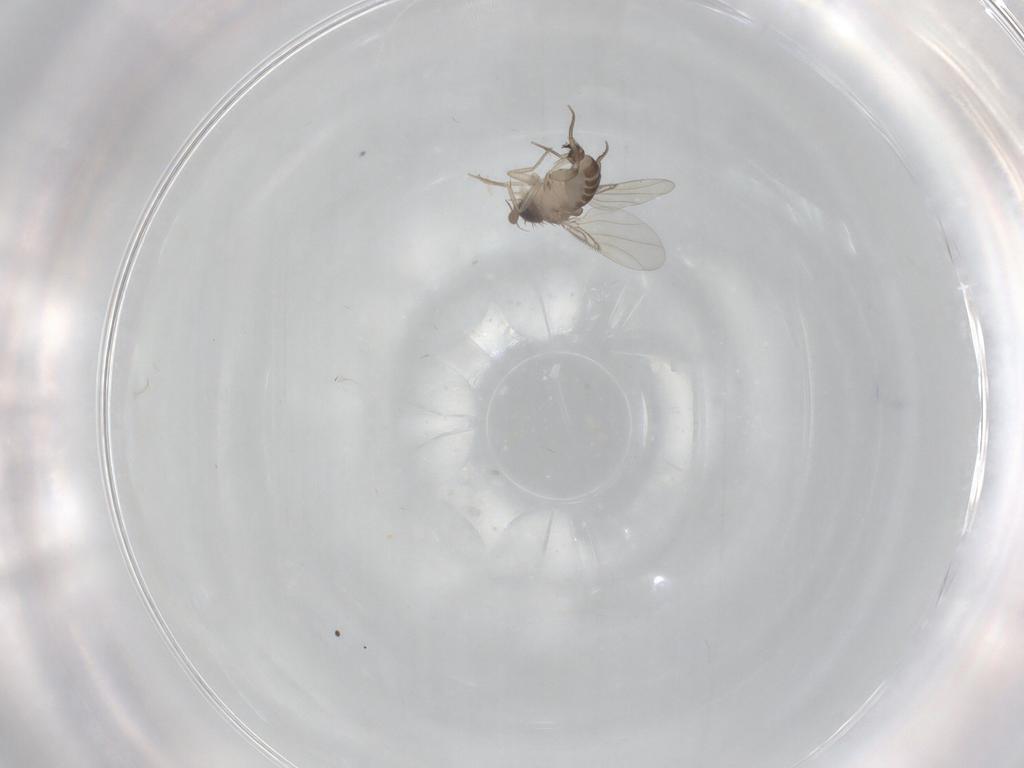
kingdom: Animalia
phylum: Arthropoda
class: Insecta
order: Diptera
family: Phoridae
